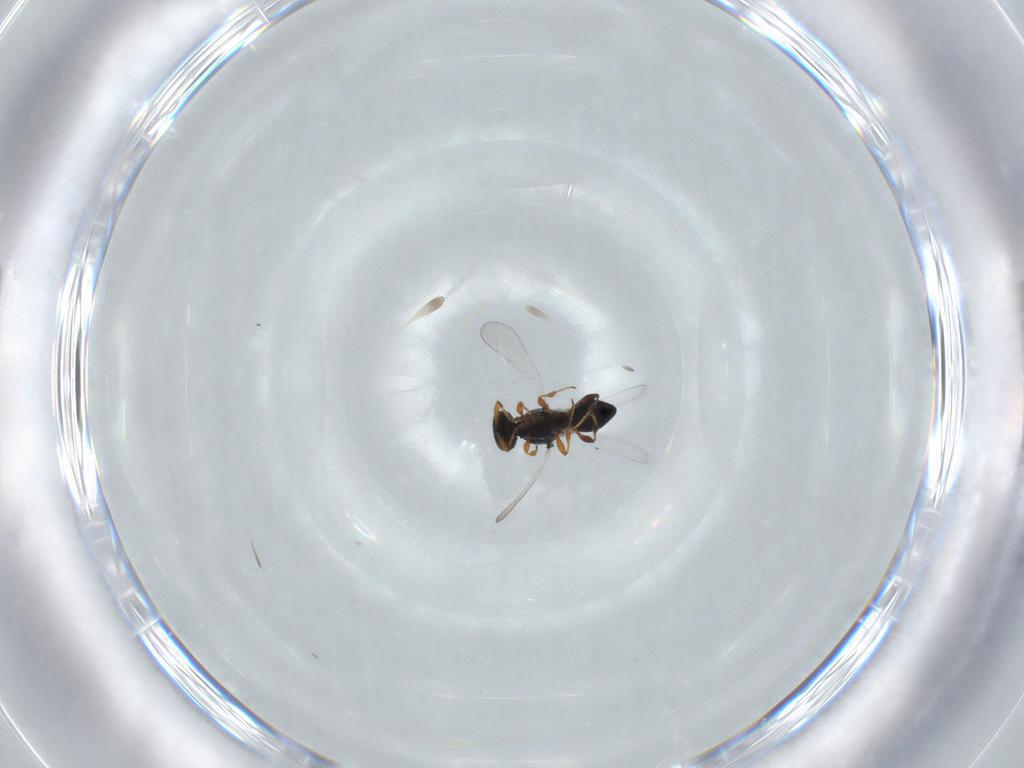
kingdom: Animalia
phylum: Arthropoda
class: Insecta
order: Hymenoptera
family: Platygastridae
